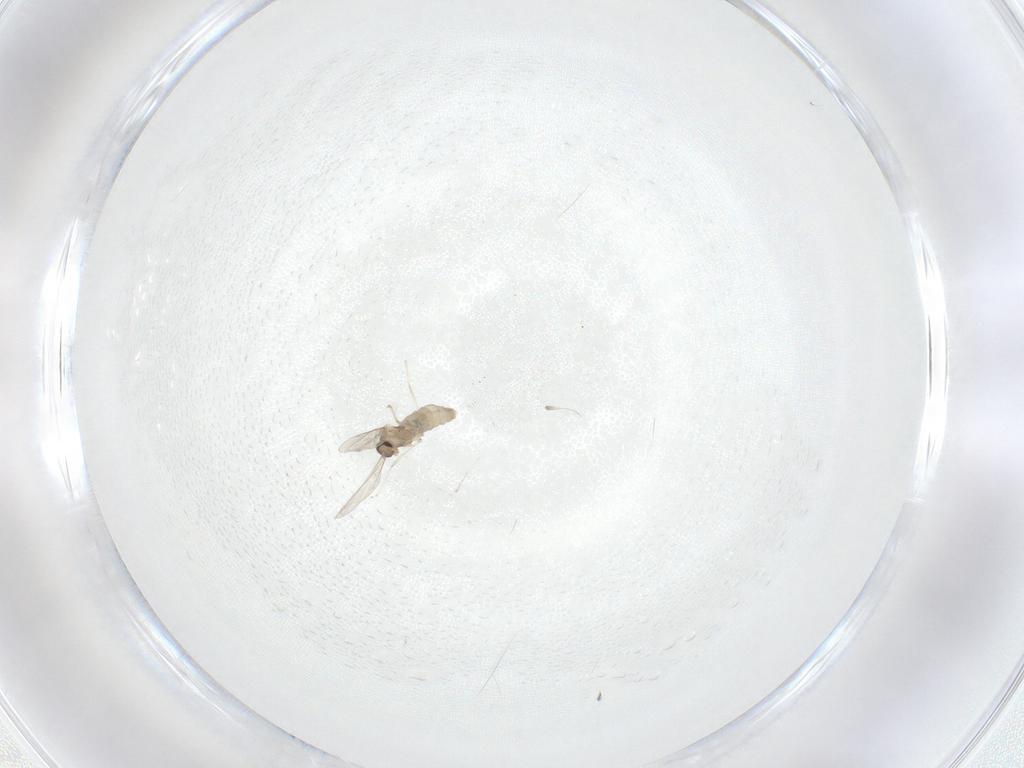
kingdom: Animalia
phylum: Arthropoda
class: Insecta
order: Diptera
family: Cecidomyiidae
